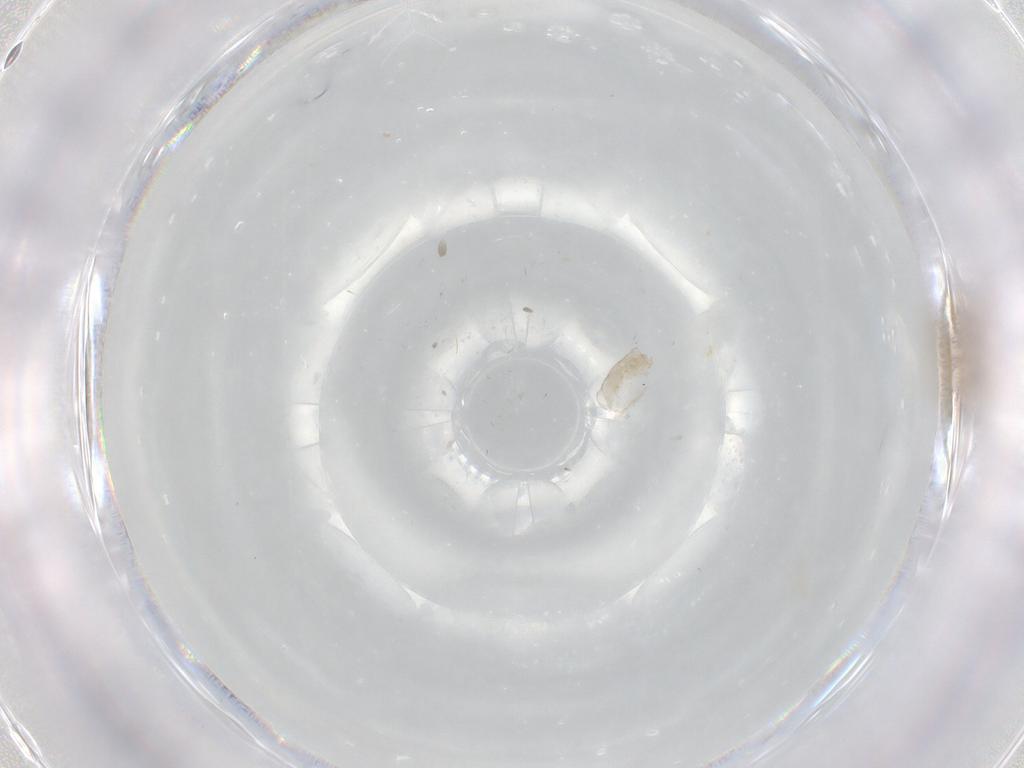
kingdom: Animalia
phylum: Arthropoda
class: Insecta
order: Diptera
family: Cecidomyiidae
